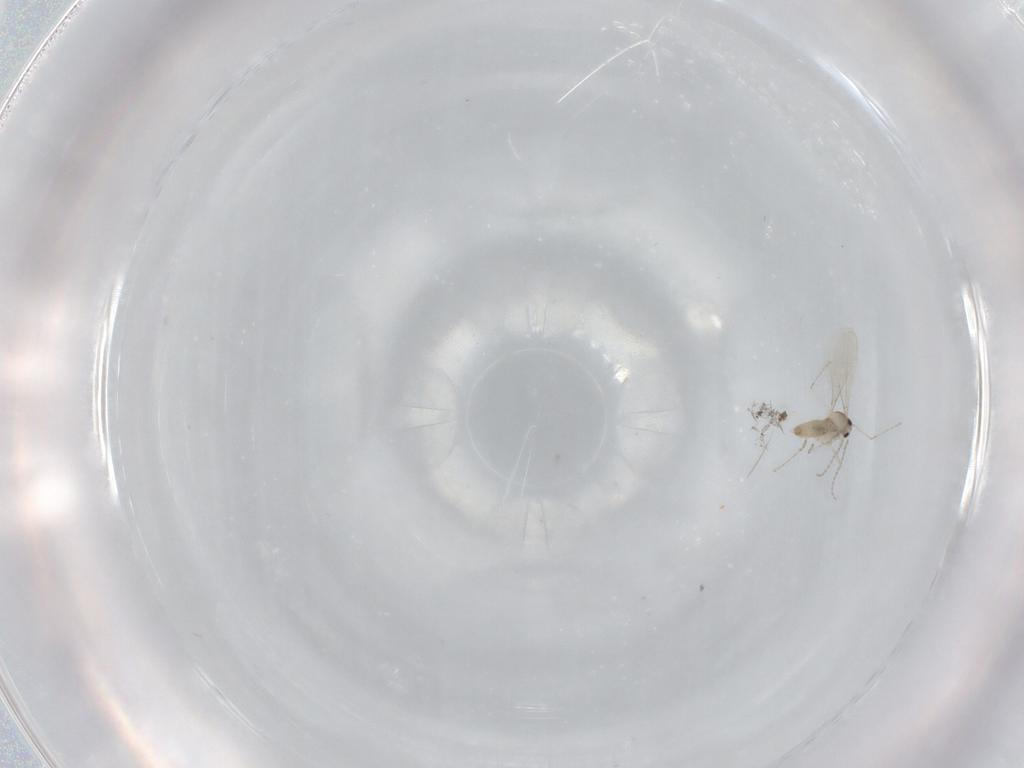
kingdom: Animalia
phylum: Arthropoda
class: Insecta
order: Diptera
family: Cecidomyiidae
